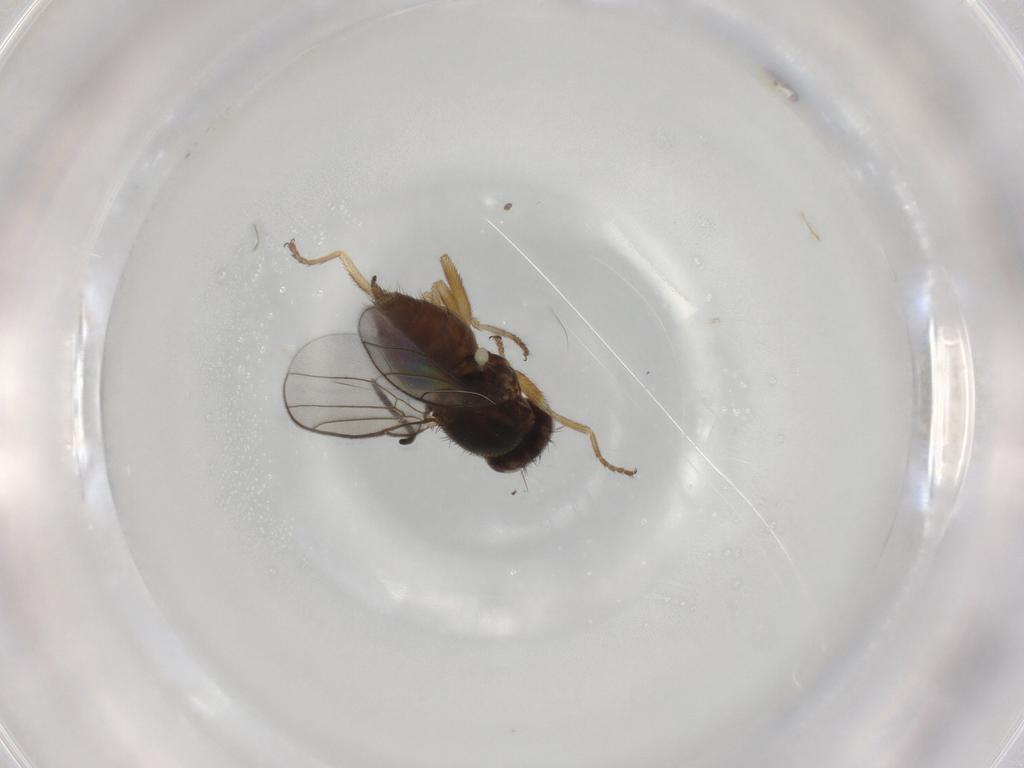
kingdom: Animalia
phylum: Arthropoda
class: Insecta
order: Diptera
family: Chloropidae
